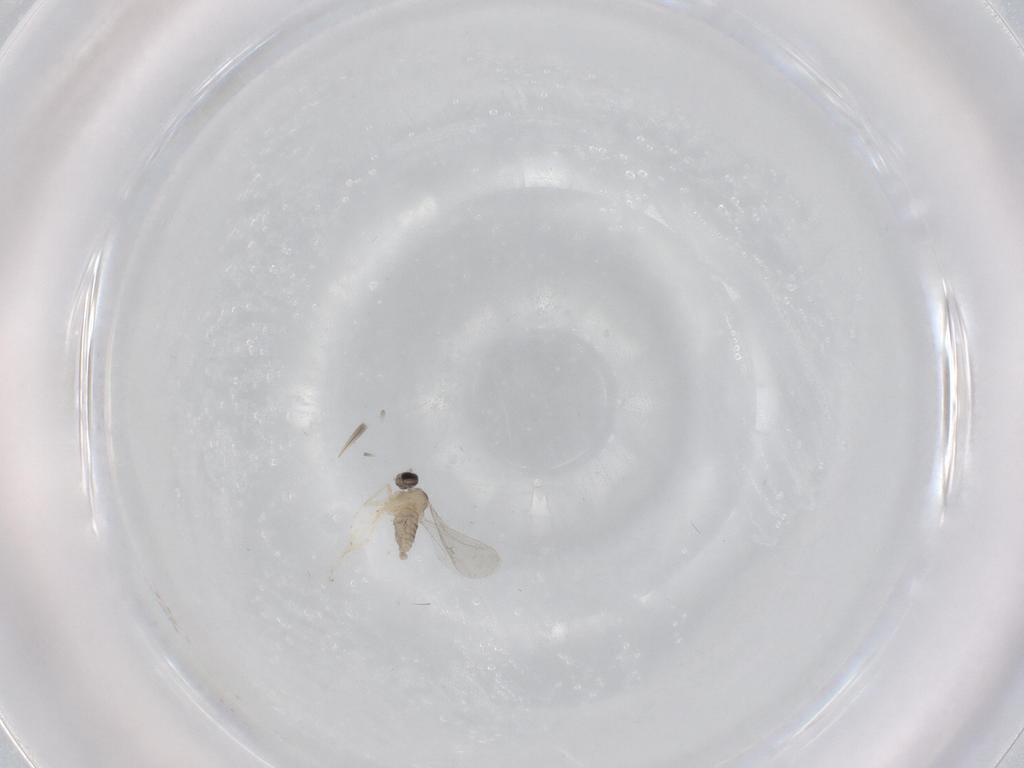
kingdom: Animalia
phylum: Arthropoda
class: Insecta
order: Diptera
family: Cecidomyiidae
